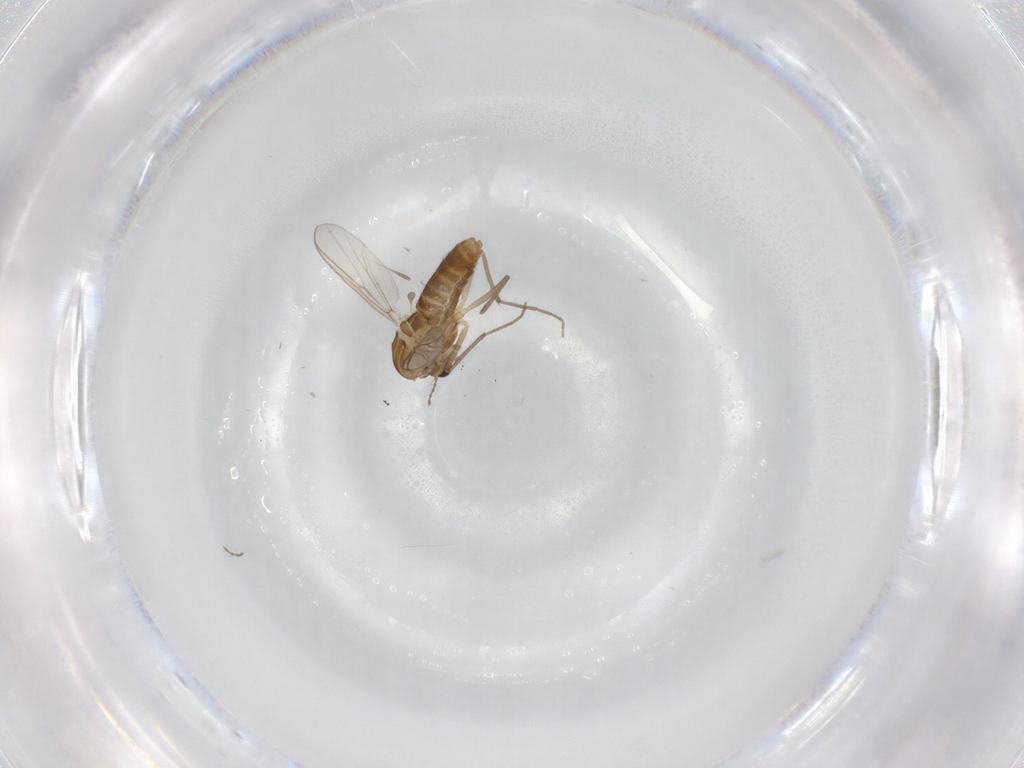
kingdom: Animalia
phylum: Arthropoda
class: Insecta
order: Diptera
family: Chironomidae
